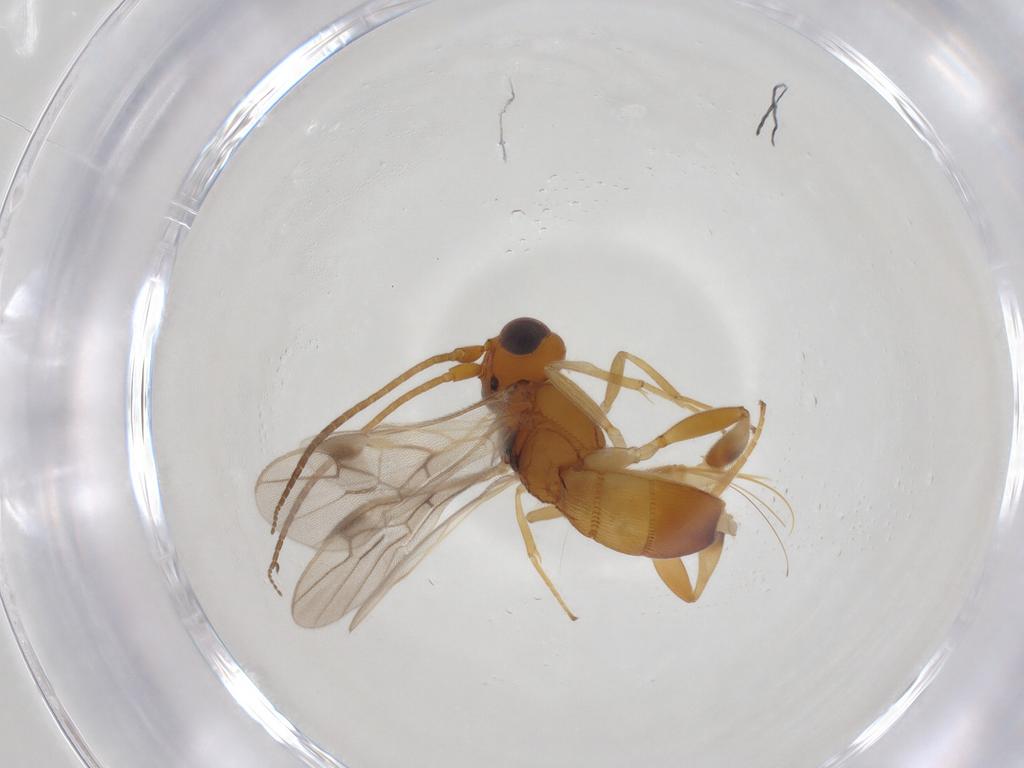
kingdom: Animalia
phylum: Arthropoda
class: Insecta
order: Hymenoptera
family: Braconidae
